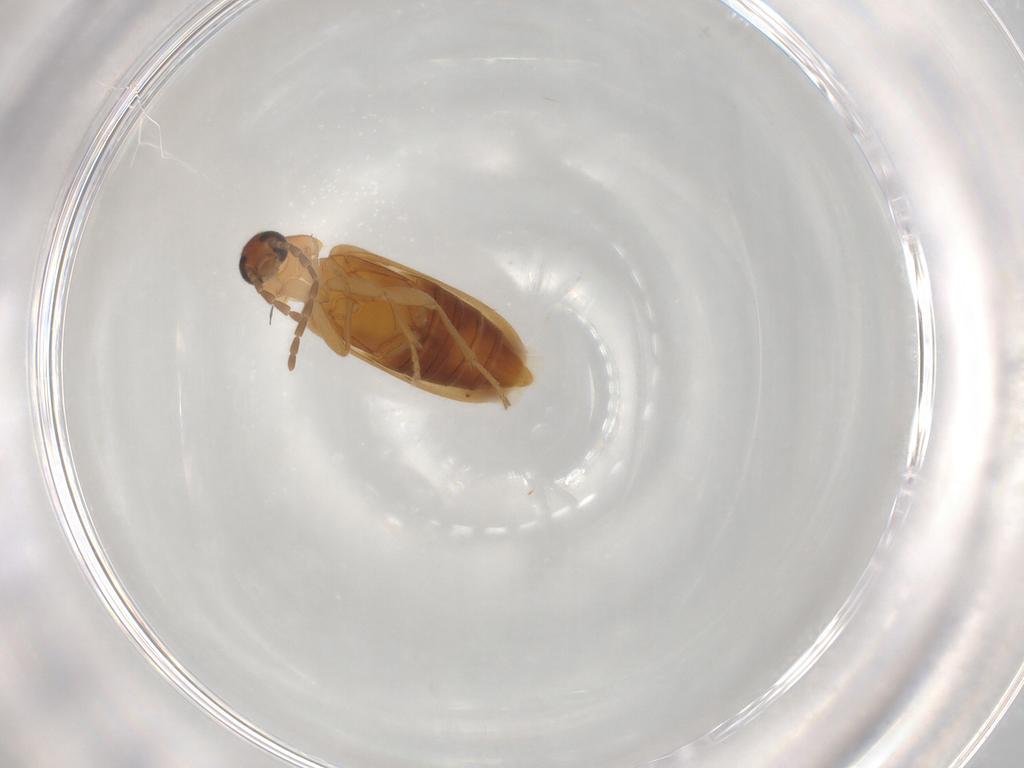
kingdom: Animalia
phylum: Arthropoda
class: Insecta
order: Coleoptera
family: Scraptiidae
